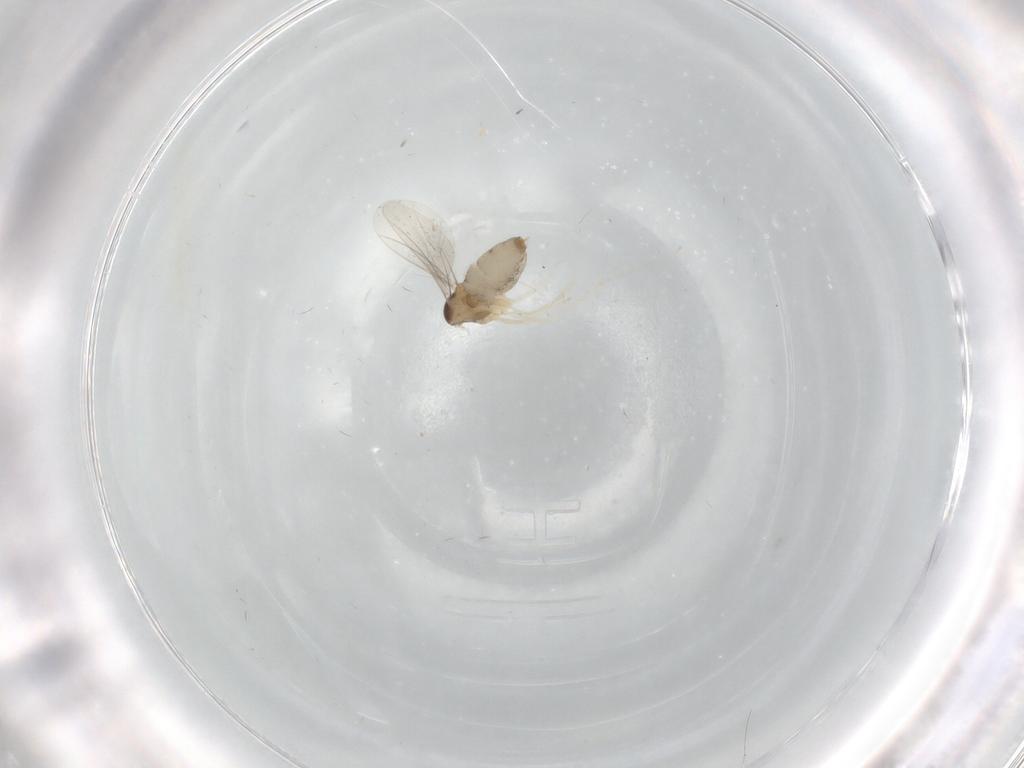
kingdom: Animalia
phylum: Arthropoda
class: Insecta
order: Diptera
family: Cecidomyiidae
